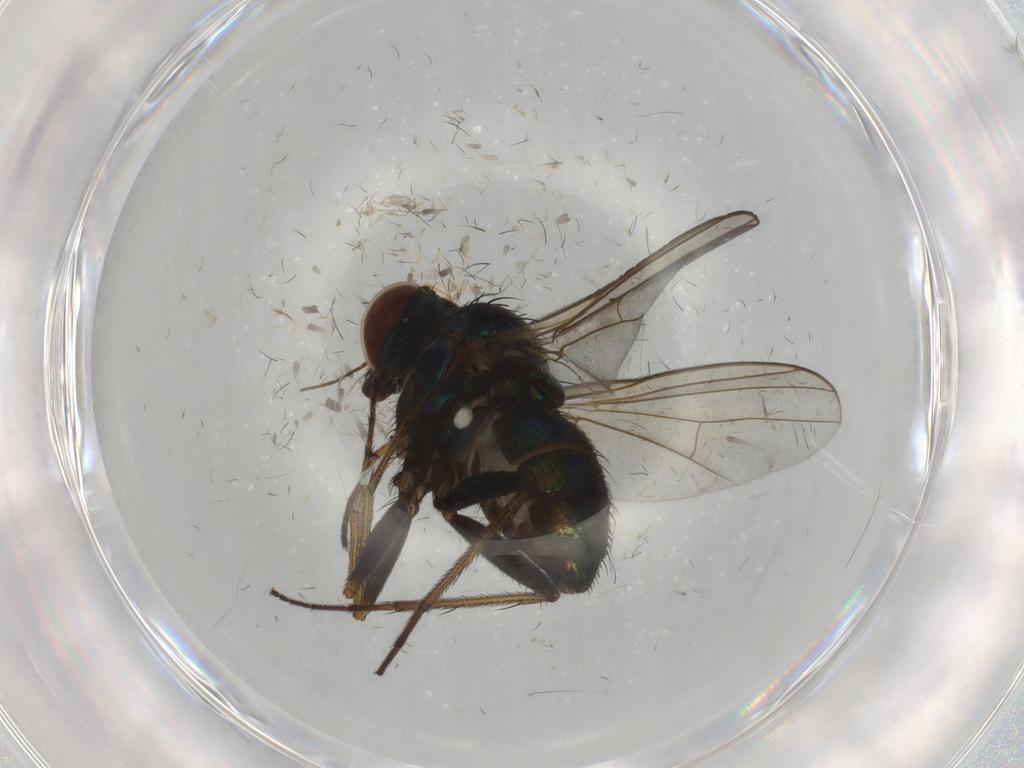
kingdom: Animalia
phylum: Arthropoda
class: Insecta
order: Diptera
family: Dolichopodidae
